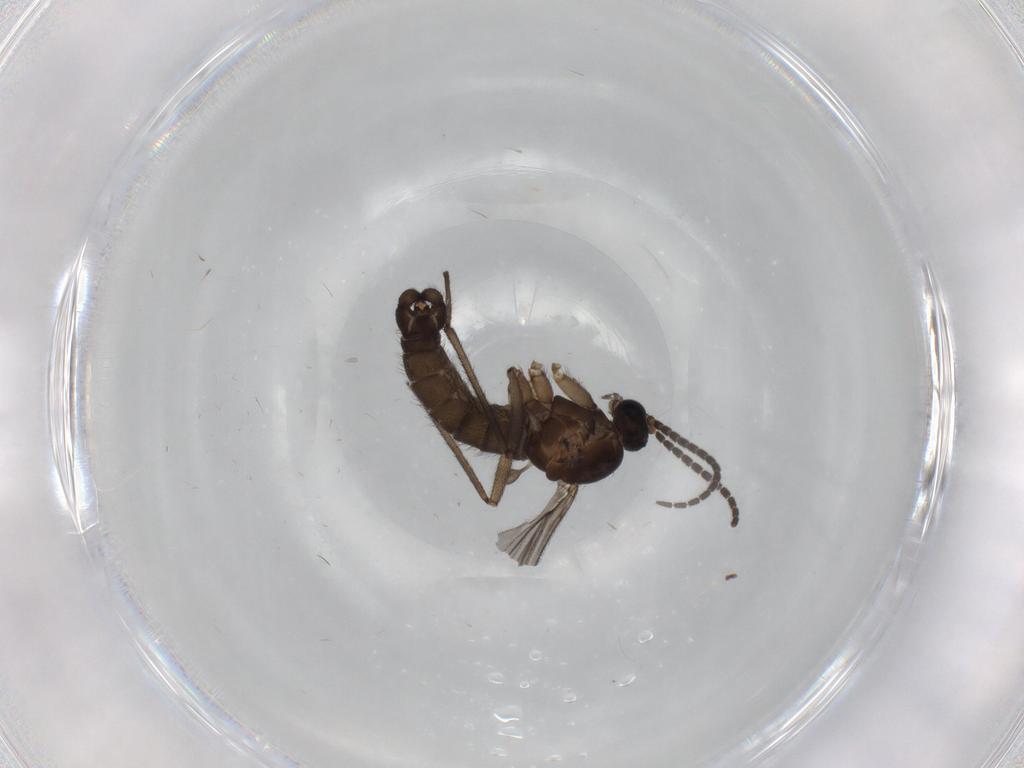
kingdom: Animalia
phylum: Arthropoda
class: Insecta
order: Diptera
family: Sciaridae
